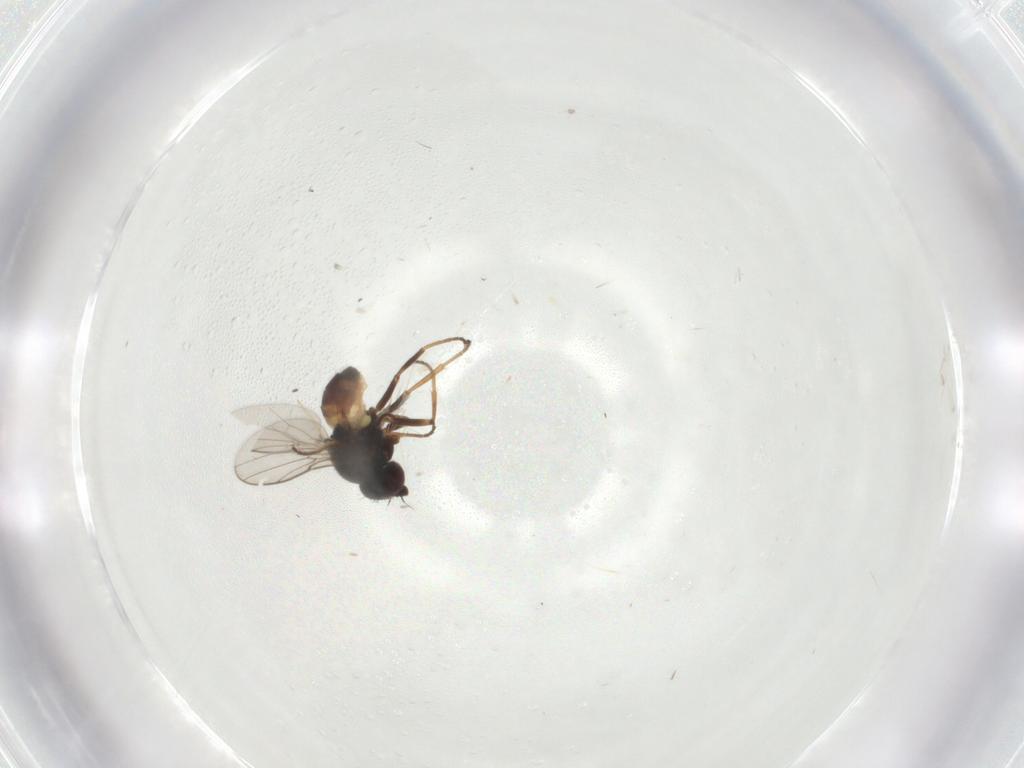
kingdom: Animalia
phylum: Arthropoda
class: Insecta
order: Diptera
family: Chloropidae
